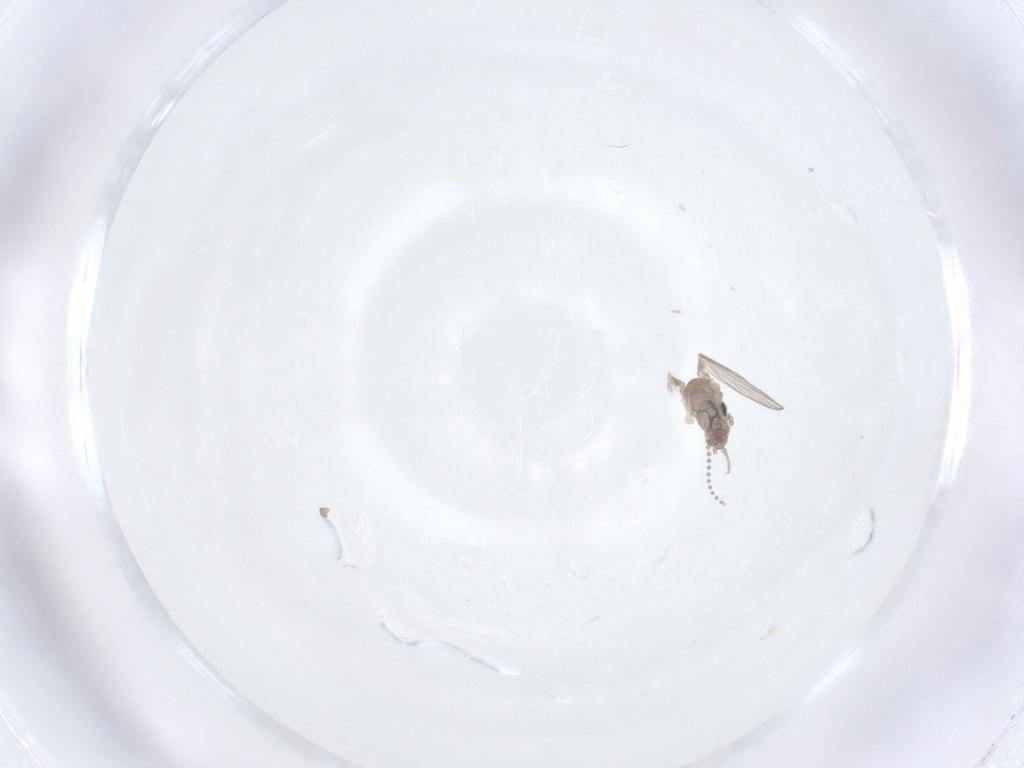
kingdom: Animalia
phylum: Arthropoda
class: Insecta
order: Diptera
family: Psychodidae
